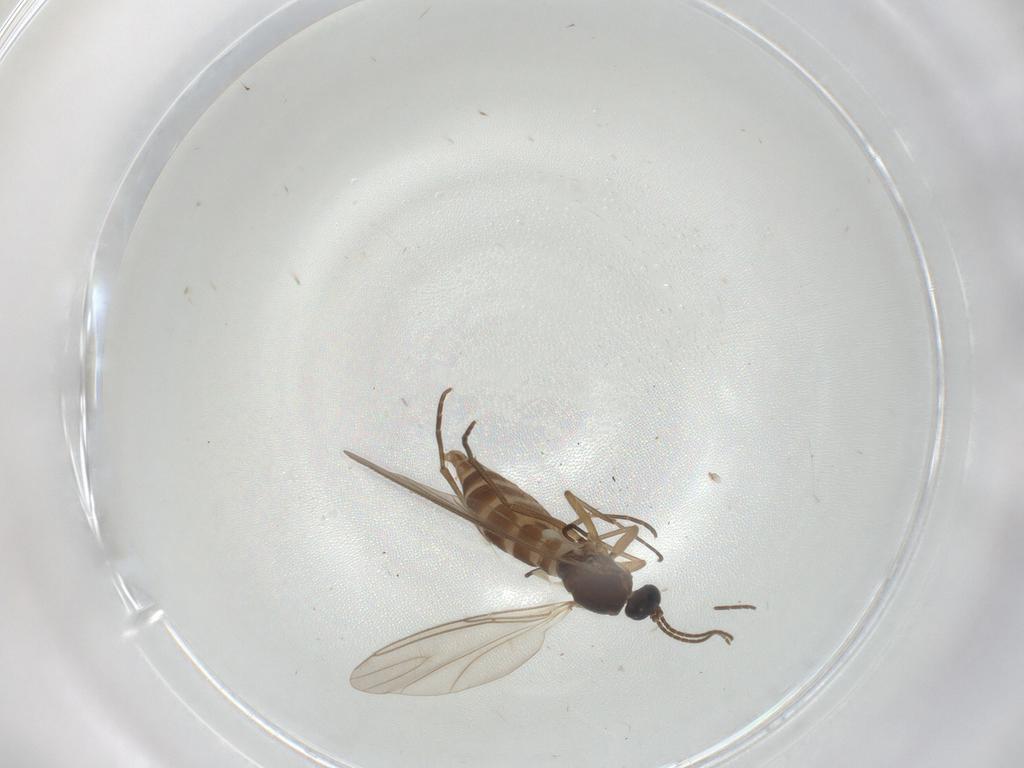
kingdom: Animalia
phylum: Arthropoda
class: Insecta
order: Diptera
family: Sciaridae
